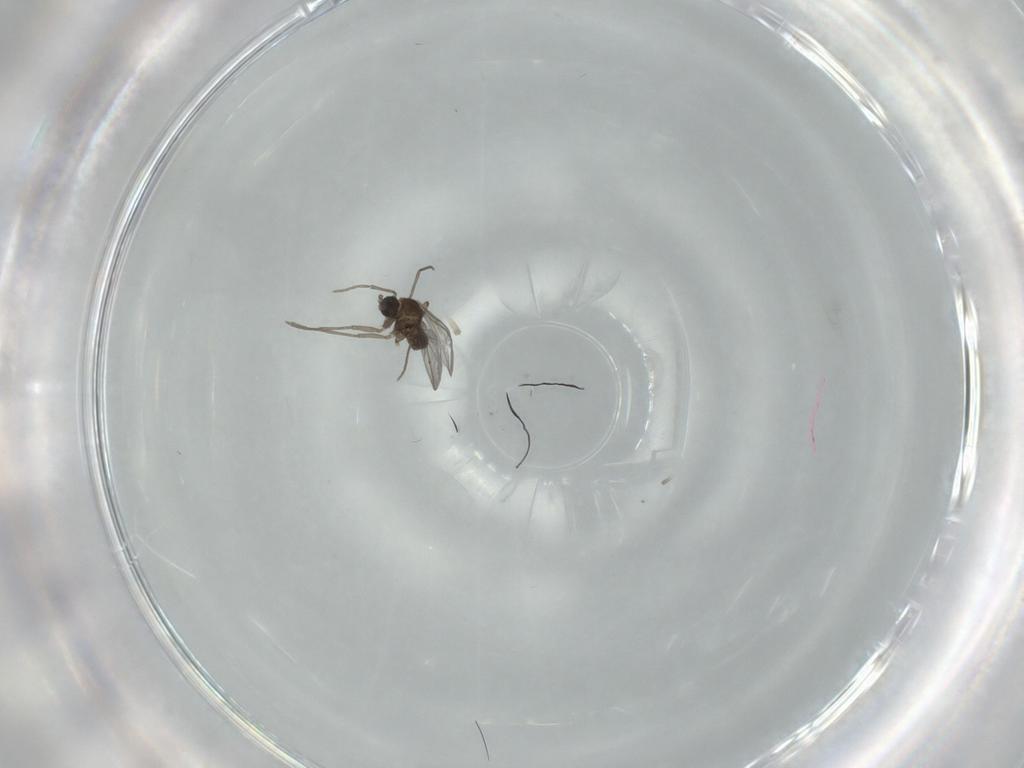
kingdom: Animalia
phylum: Arthropoda
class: Insecta
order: Diptera
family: Sciaridae
